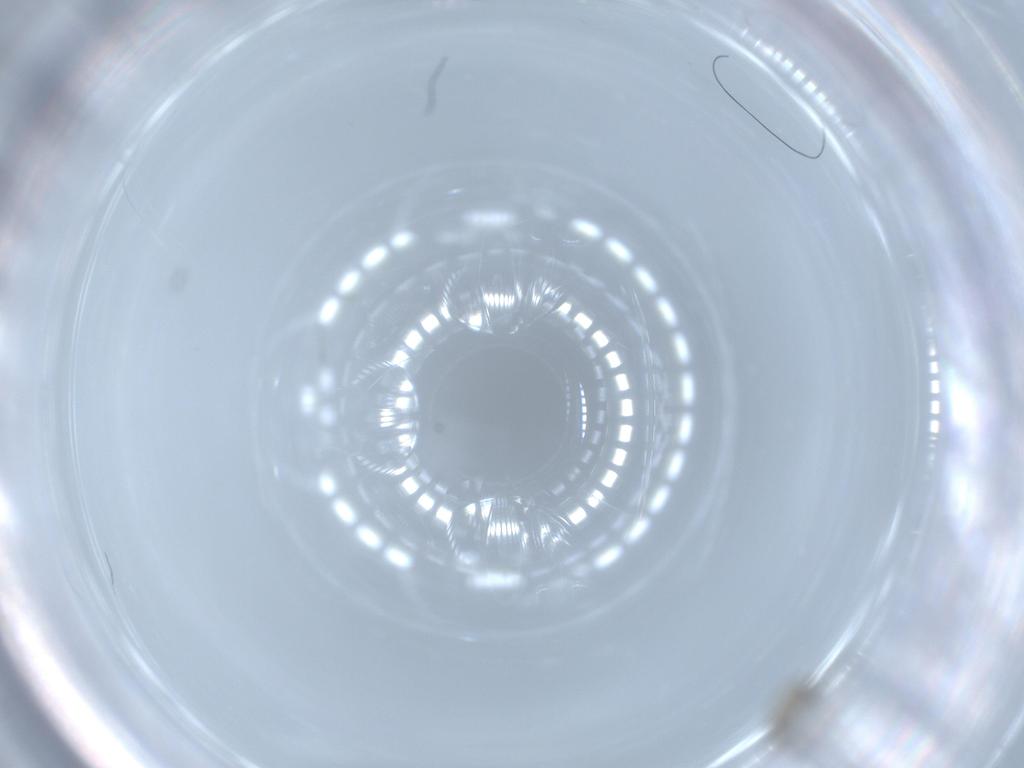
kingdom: Animalia
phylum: Arthropoda
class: Insecta
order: Diptera
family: Cecidomyiidae
